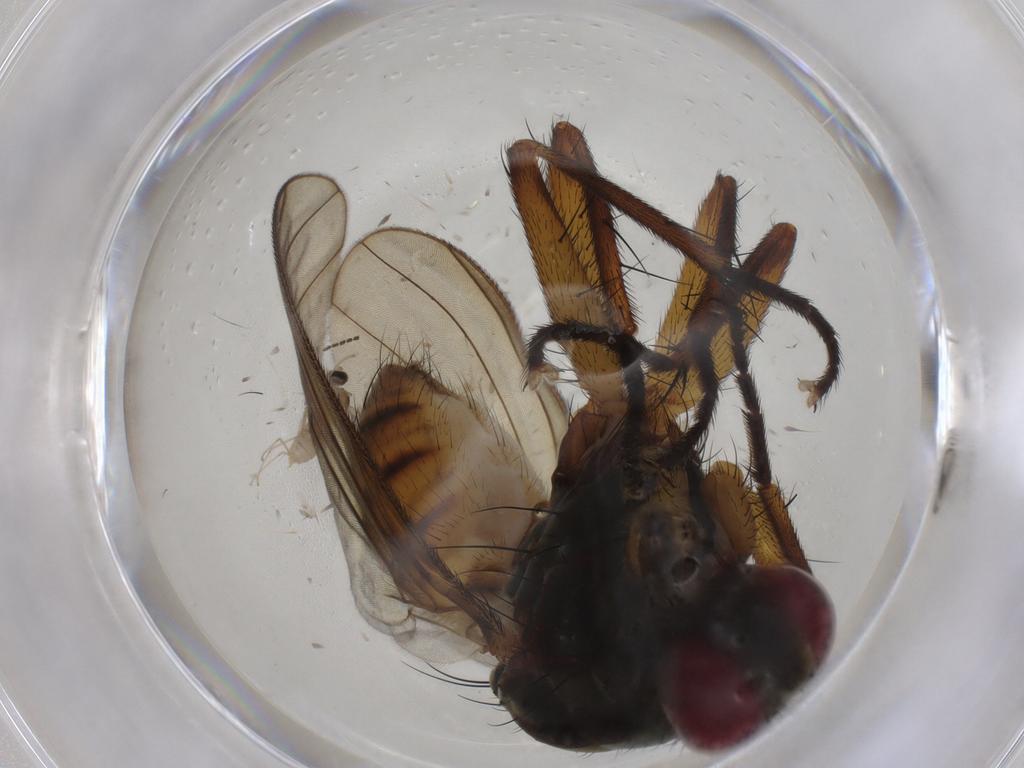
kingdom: Animalia
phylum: Arthropoda
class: Insecta
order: Diptera
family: Muscidae
